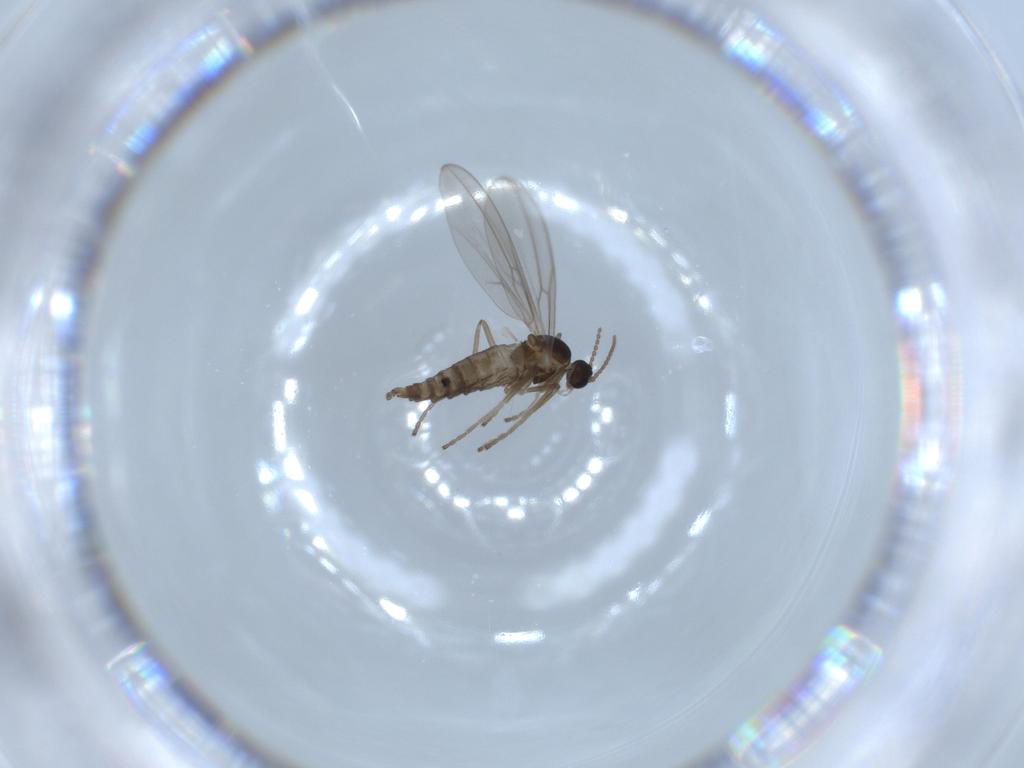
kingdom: Animalia
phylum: Arthropoda
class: Insecta
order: Diptera
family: Cecidomyiidae
